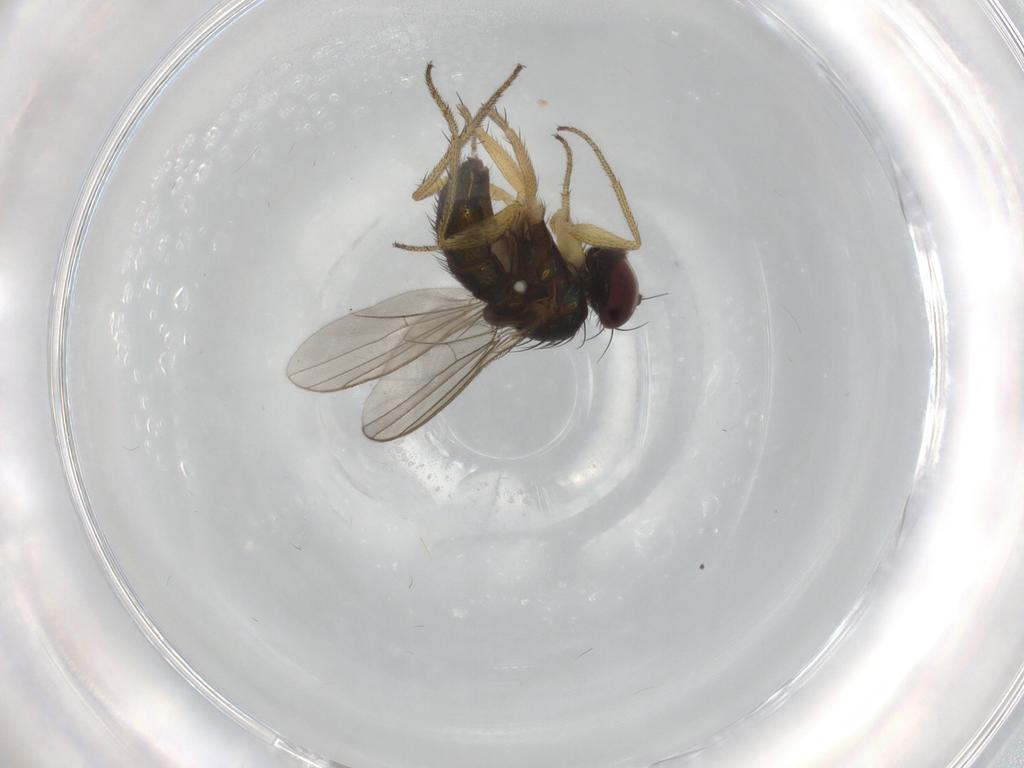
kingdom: Animalia
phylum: Arthropoda
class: Insecta
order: Diptera
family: Dolichopodidae
